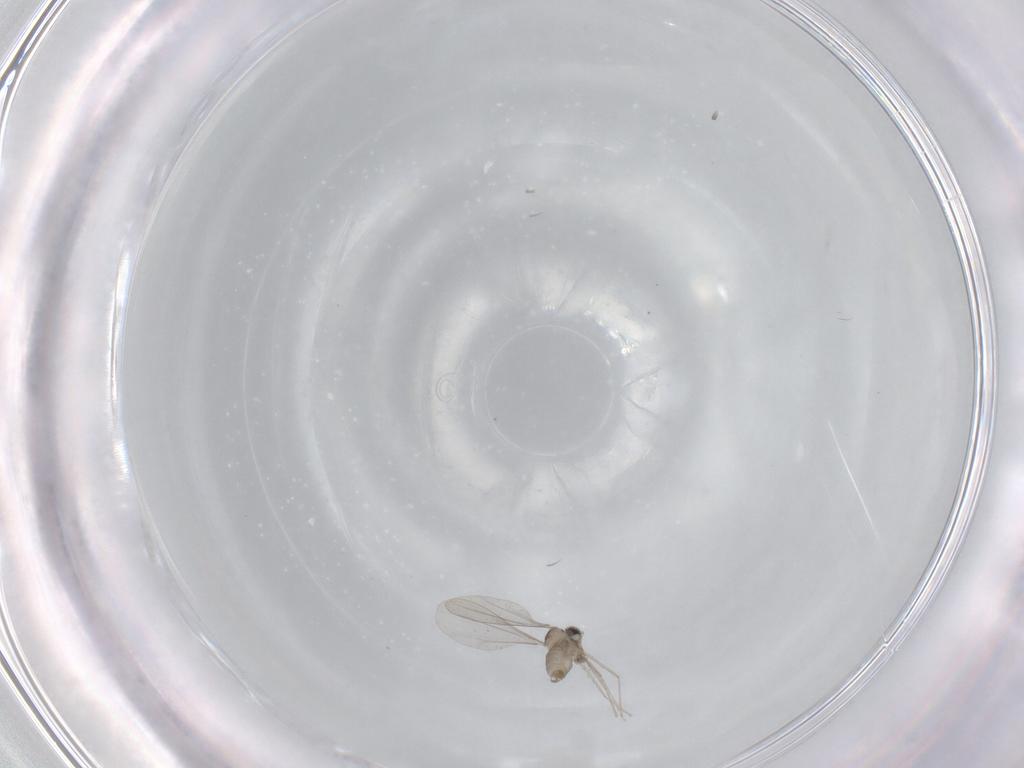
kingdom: Animalia
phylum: Arthropoda
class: Insecta
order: Diptera
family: Cecidomyiidae
